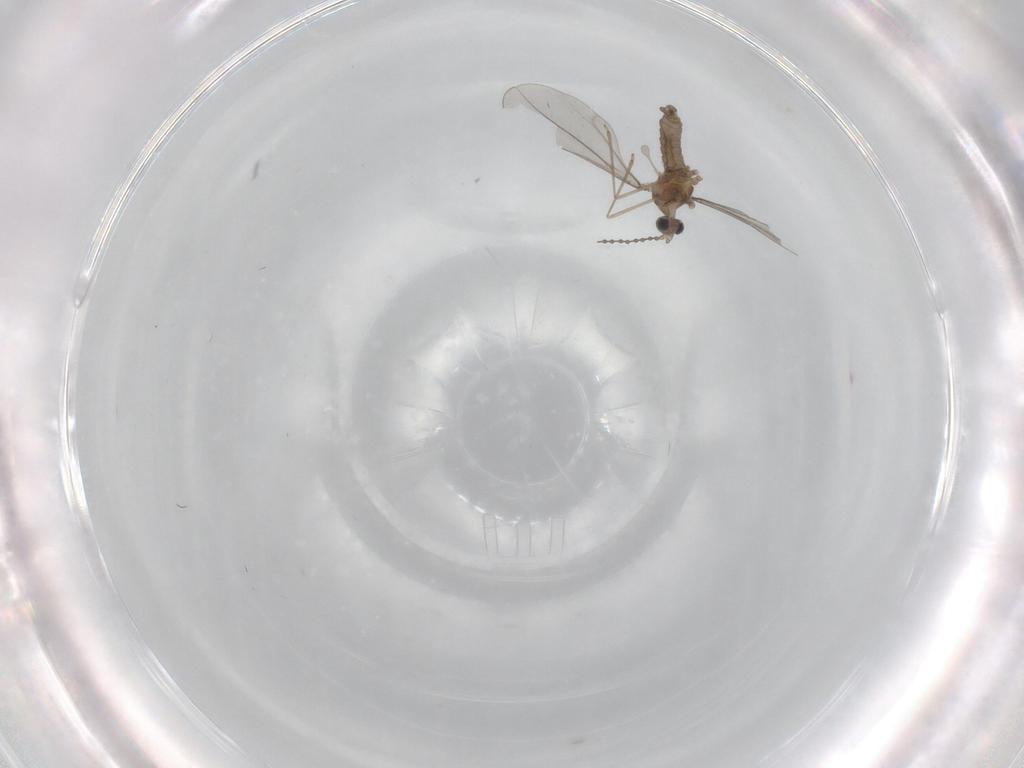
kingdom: Animalia
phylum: Arthropoda
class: Insecta
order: Diptera
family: Cecidomyiidae
